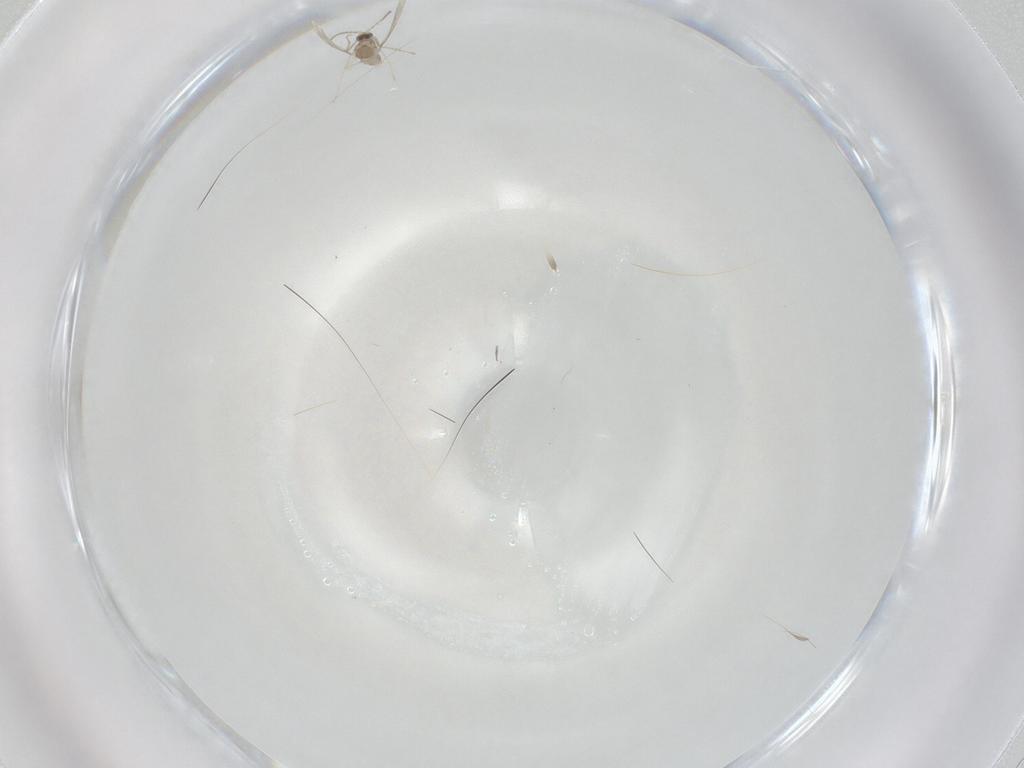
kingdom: Animalia
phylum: Arthropoda
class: Insecta
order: Diptera
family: Cecidomyiidae
